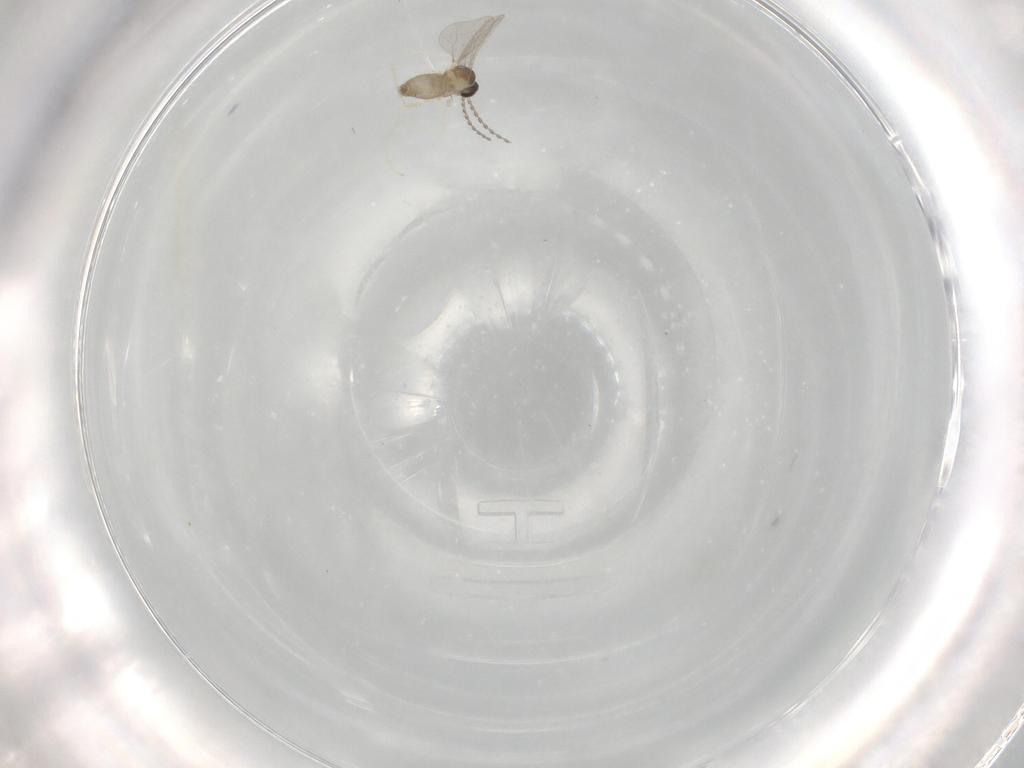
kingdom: Animalia
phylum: Arthropoda
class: Insecta
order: Diptera
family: Cecidomyiidae
